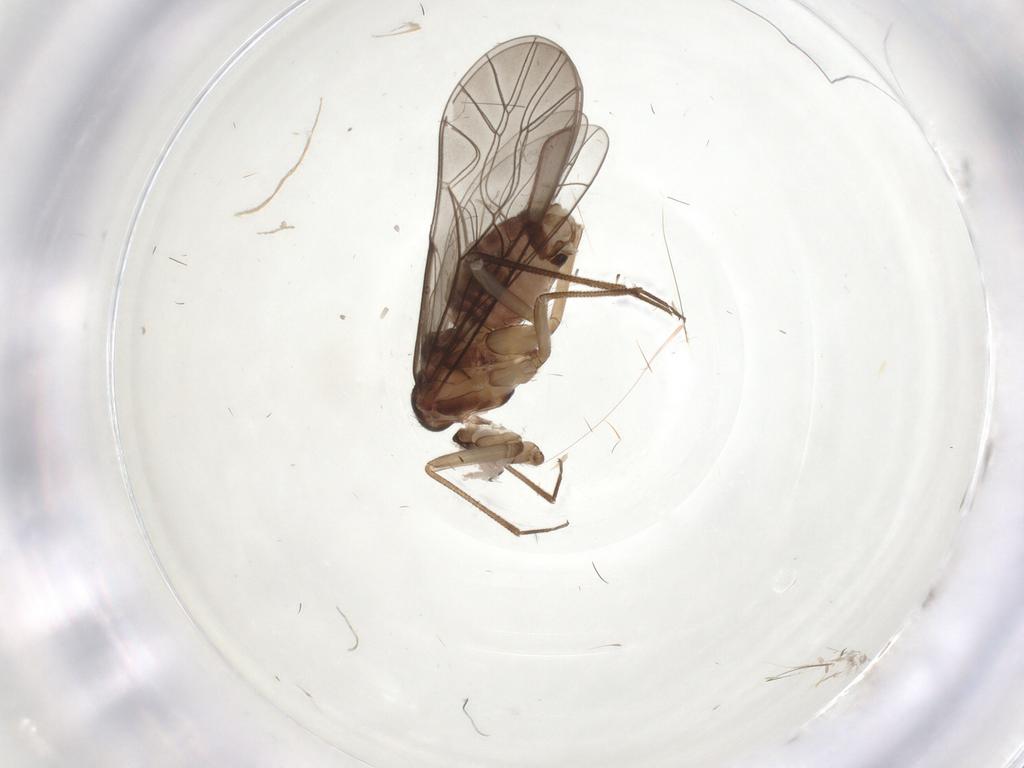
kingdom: Animalia
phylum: Arthropoda
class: Insecta
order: Psocodea
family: Lachesillidae
